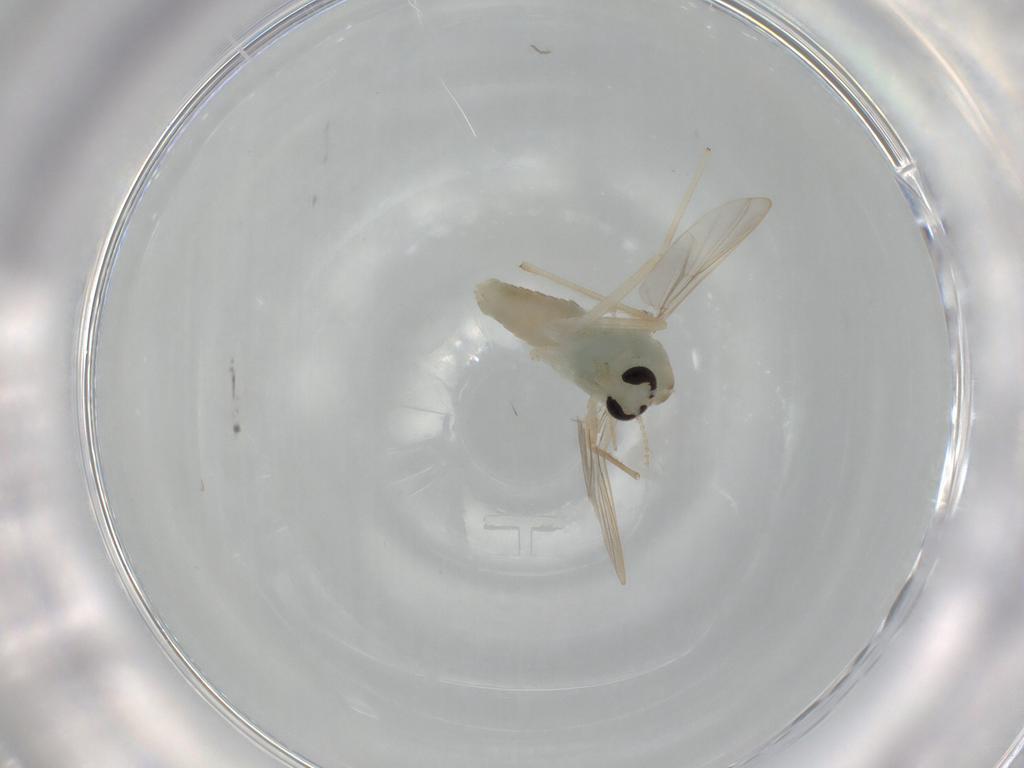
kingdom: Animalia
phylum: Arthropoda
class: Insecta
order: Diptera
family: Chironomidae
